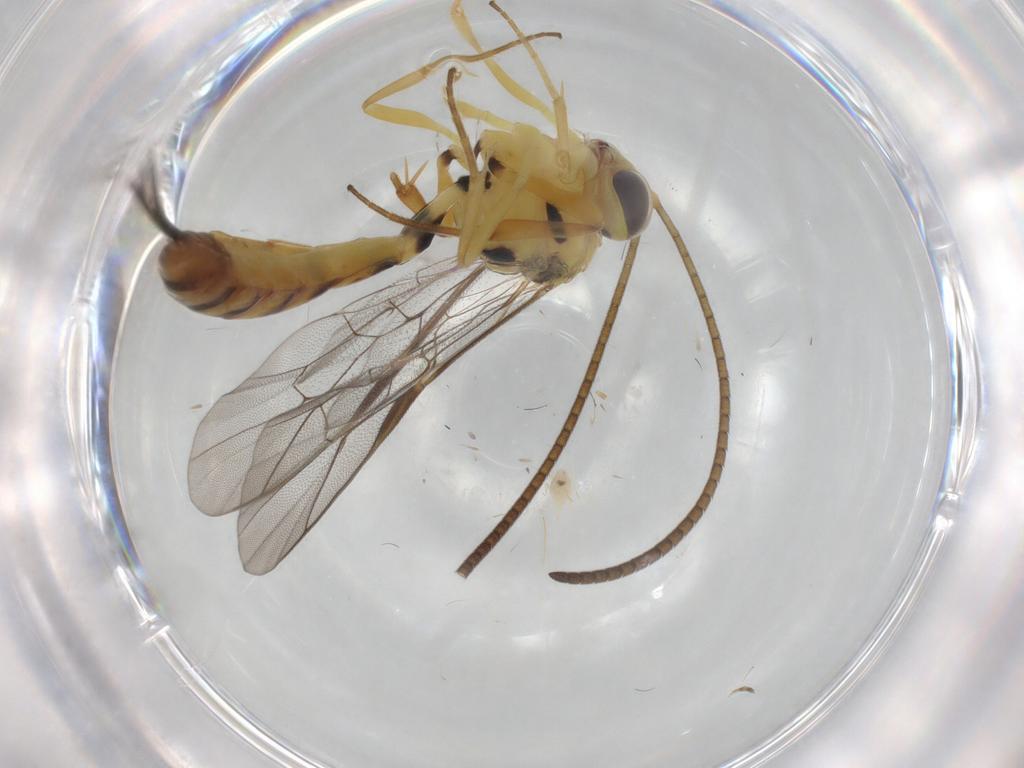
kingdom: Animalia
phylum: Arthropoda
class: Insecta
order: Hymenoptera
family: Ichneumonidae
